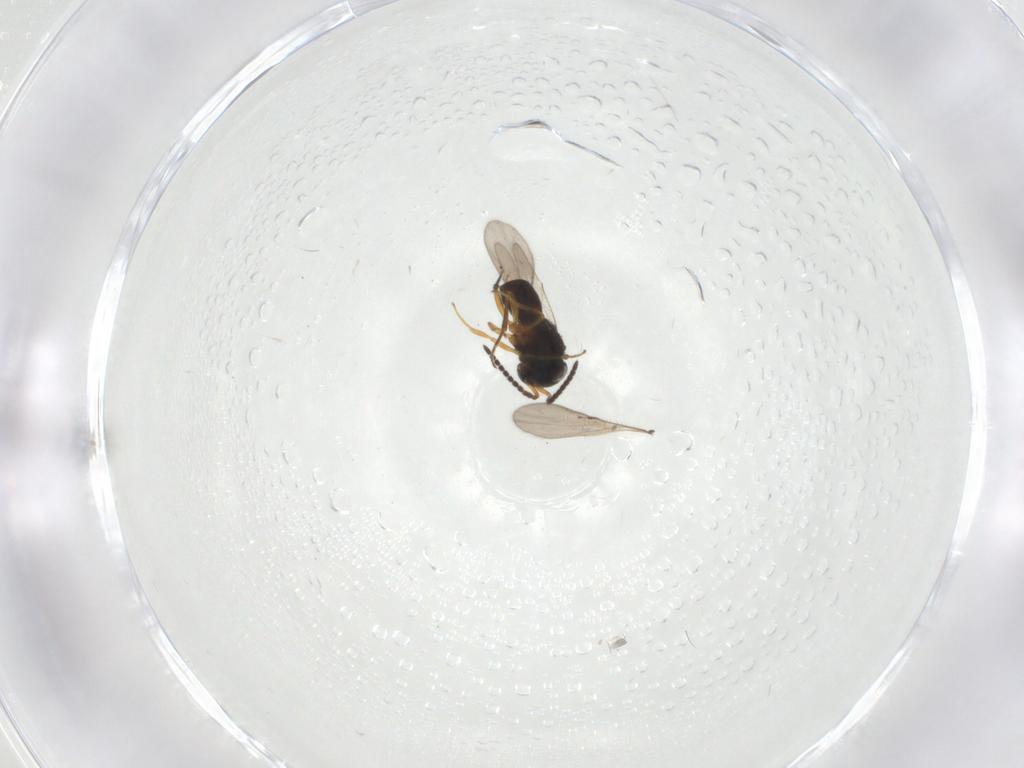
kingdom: Animalia
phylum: Arthropoda
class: Insecta
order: Hymenoptera
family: Scelionidae
